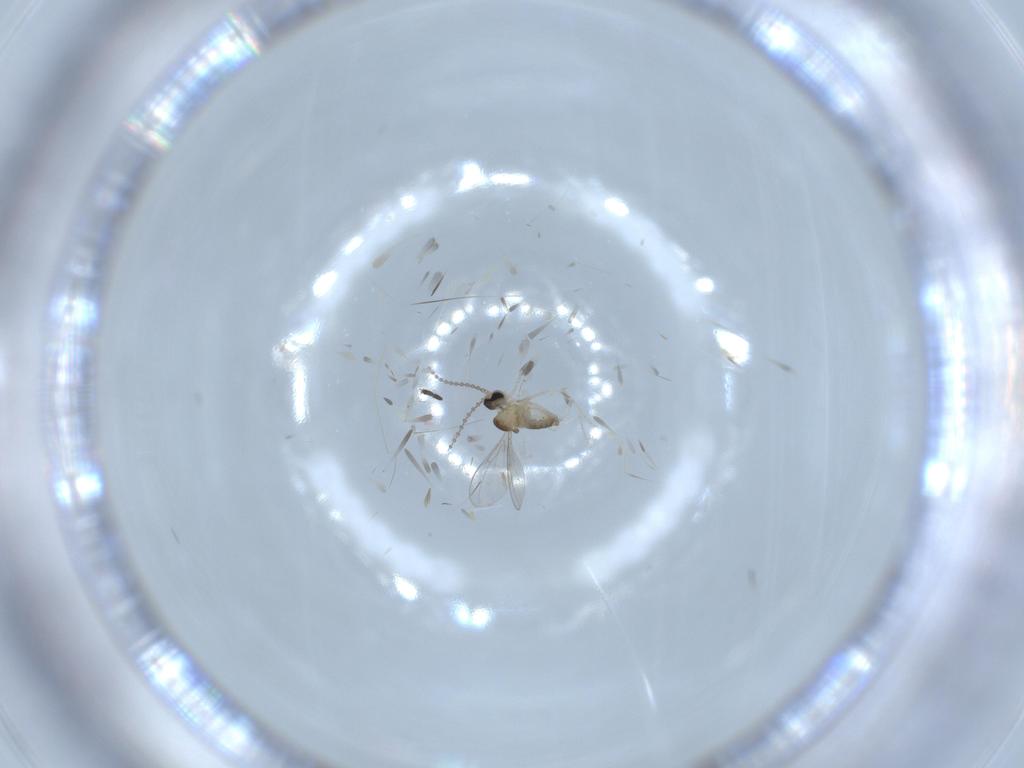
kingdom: Animalia
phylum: Arthropoda
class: Insecta
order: Diptera
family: Cecidomyiidae
